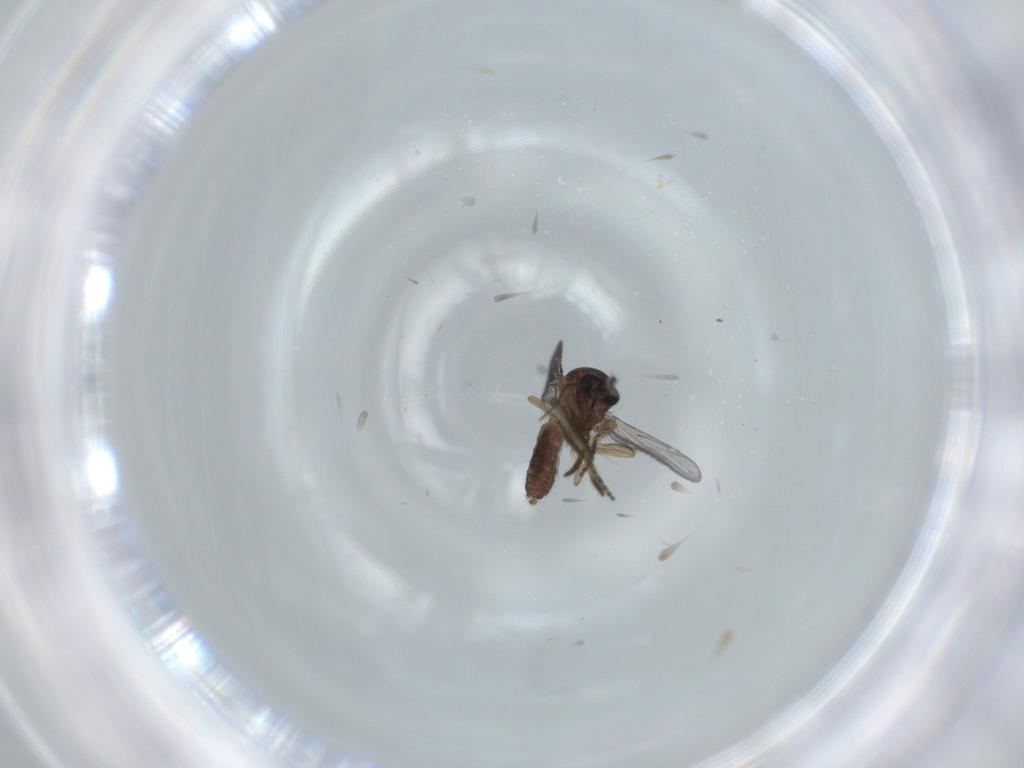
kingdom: Animalia
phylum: Arthropoda
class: Insecta
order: Diptera
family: Ceratopogonidae
